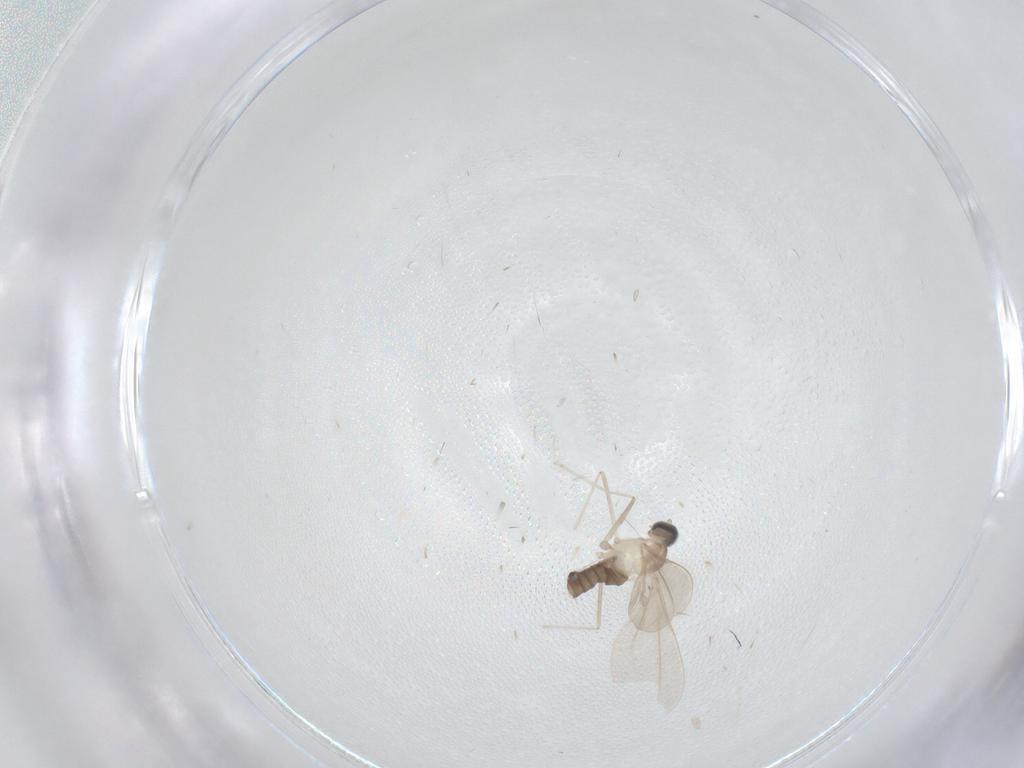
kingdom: Animalia
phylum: Arthropoda
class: Insecta
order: Diptera
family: Cecidomyiidae
